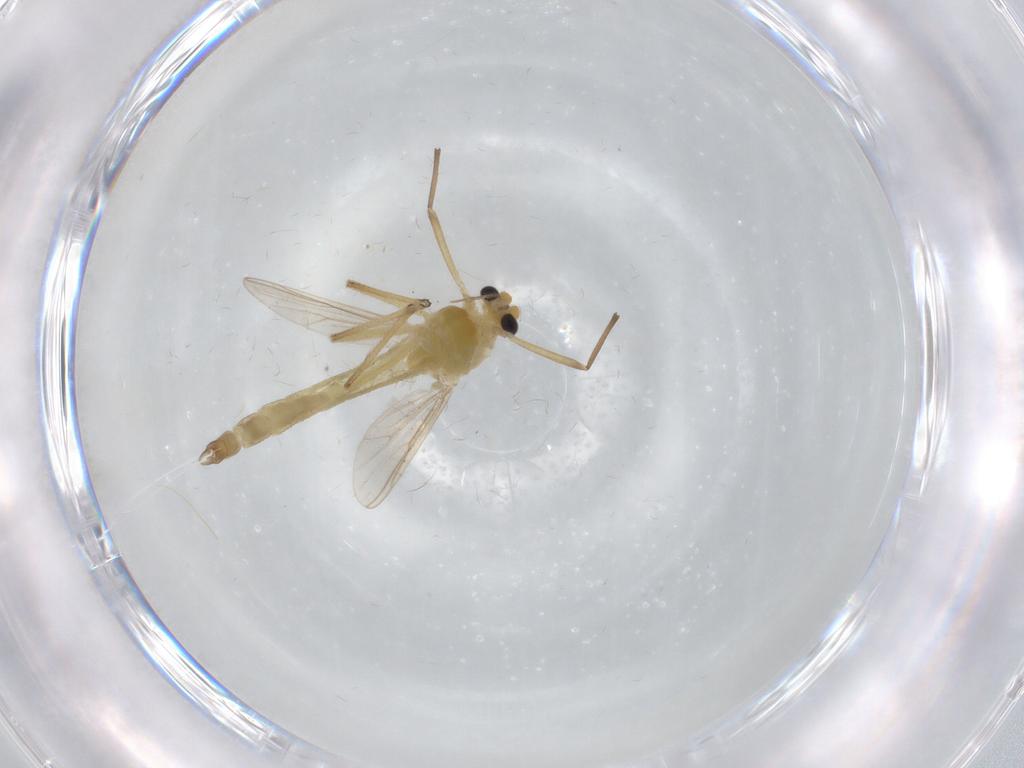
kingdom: Animalia
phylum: Arthropoda
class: Insecta
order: Diptera
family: Chironomidae
